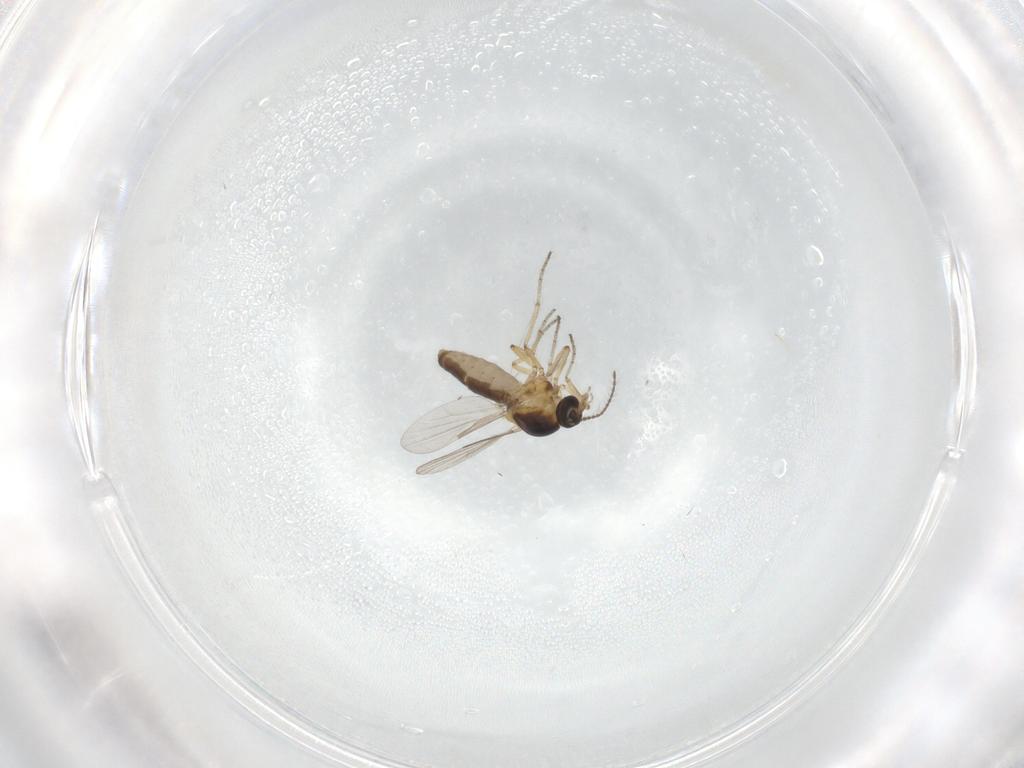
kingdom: Animalia
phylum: Arthropoda
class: Insecta
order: Diptera
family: Ceratopogonidae
